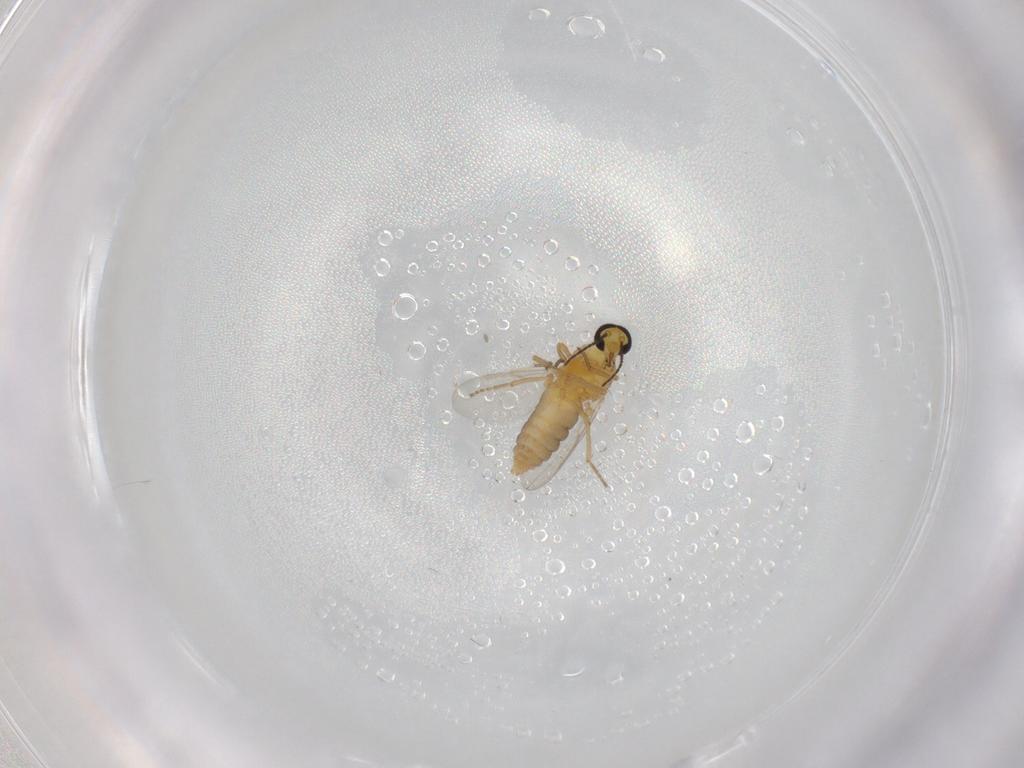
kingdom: Animalia
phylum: Arthropoda
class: Insecta
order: Diptera
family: Ceratopogonidae
